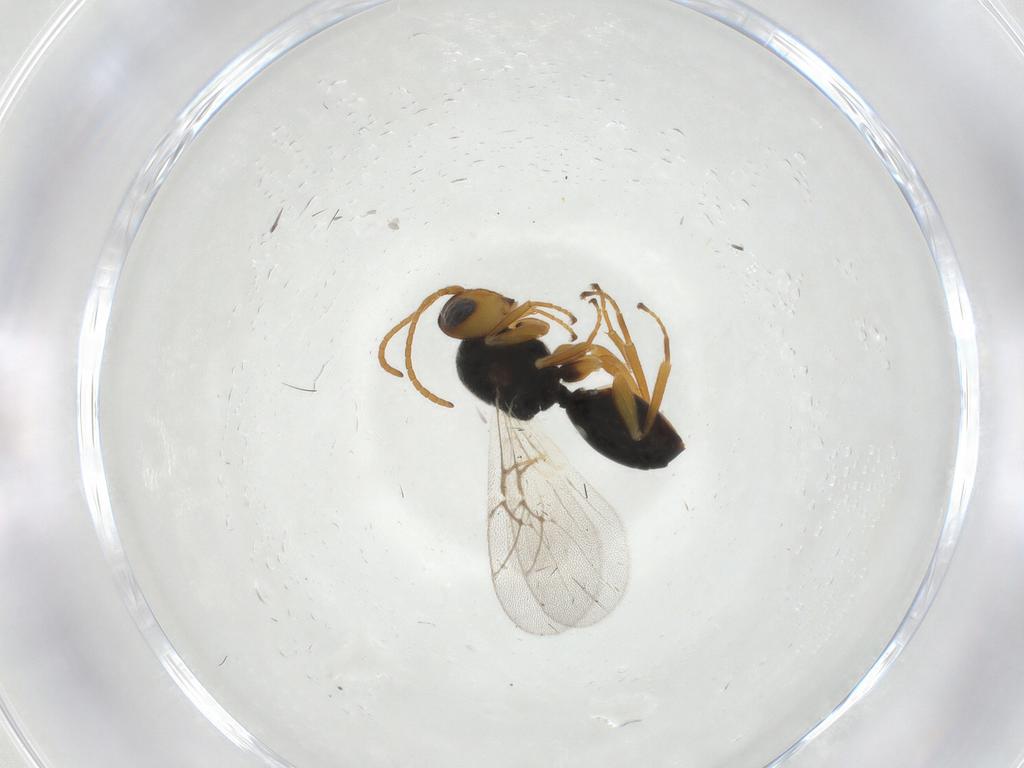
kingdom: Animalia
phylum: Arthropoda
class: Insecta
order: Hymenoptera
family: Cynipidae
